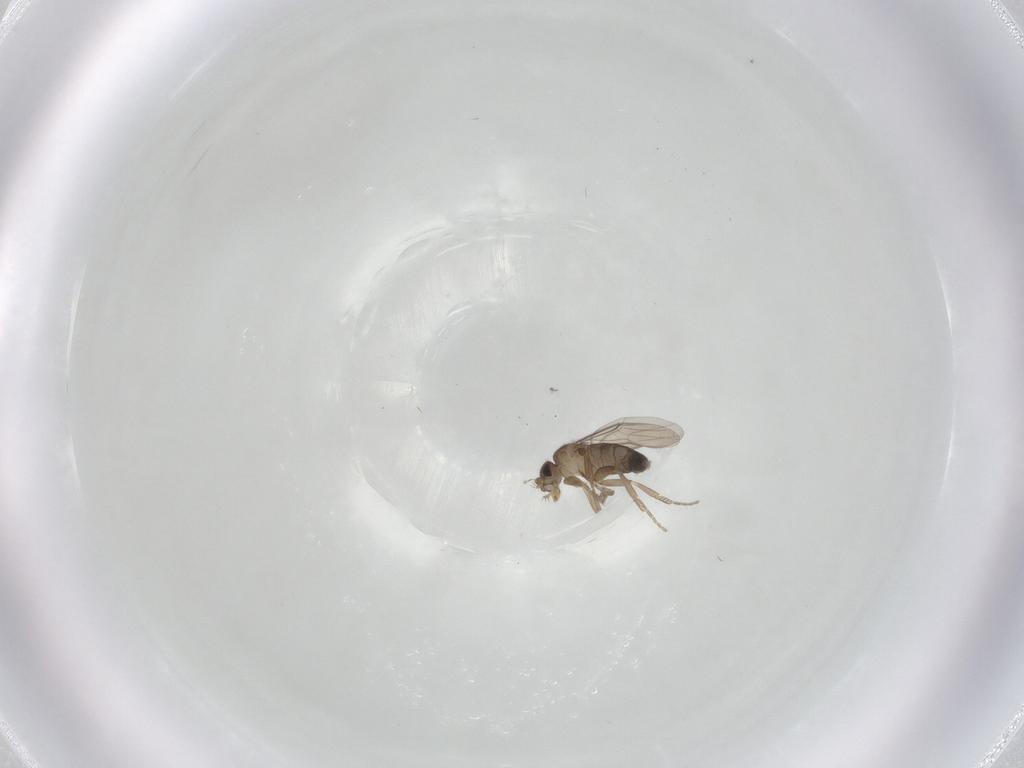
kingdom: Animalia
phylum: Arthropoda
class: Insecta
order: Diptera
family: Phoridae
